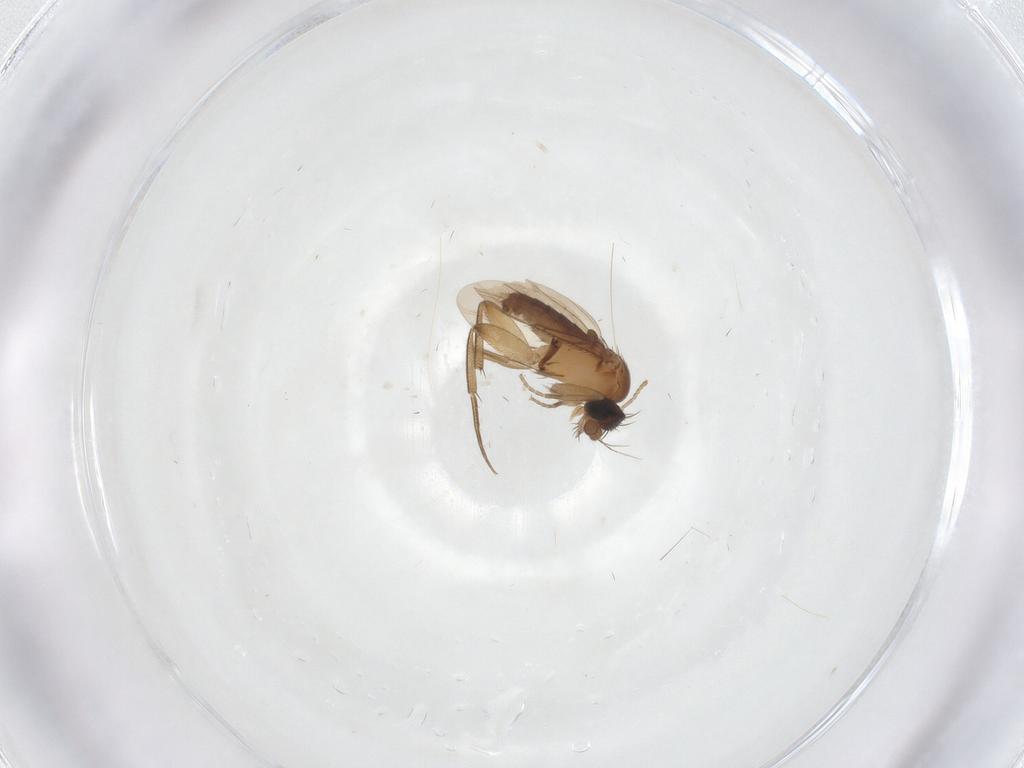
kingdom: Animalia
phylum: Arthropoda
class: Insecta
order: Diptera
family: Phoridae
